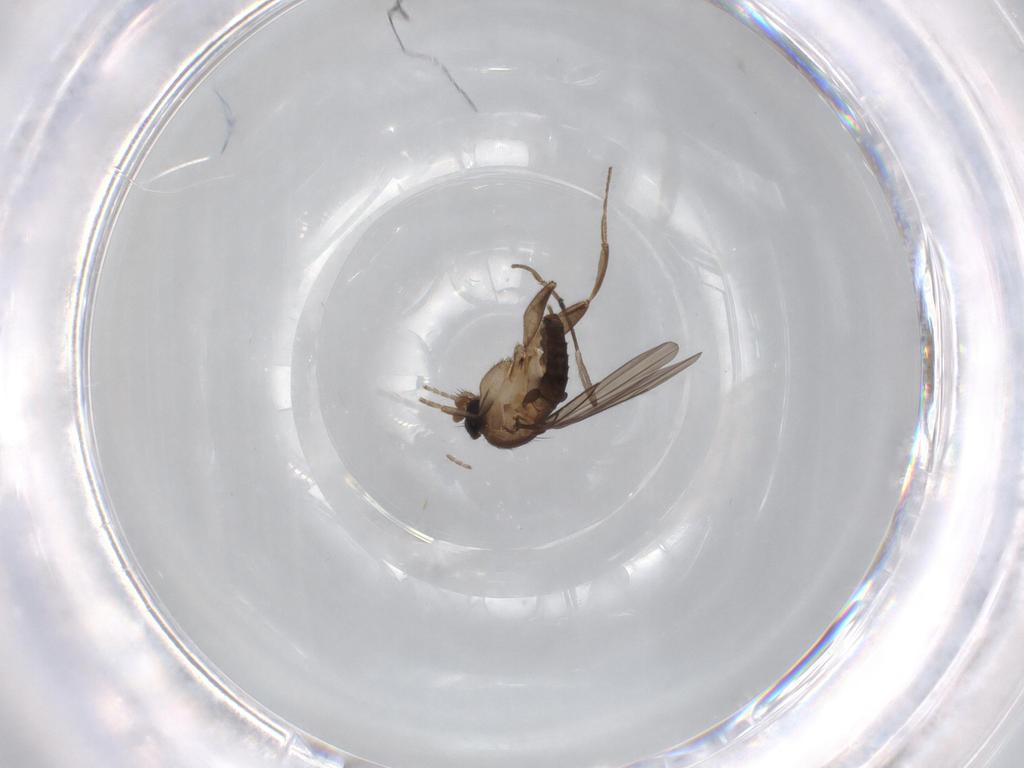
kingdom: Animalia
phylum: Arthropoda
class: Insecta
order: Diptera
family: Sciaridae
